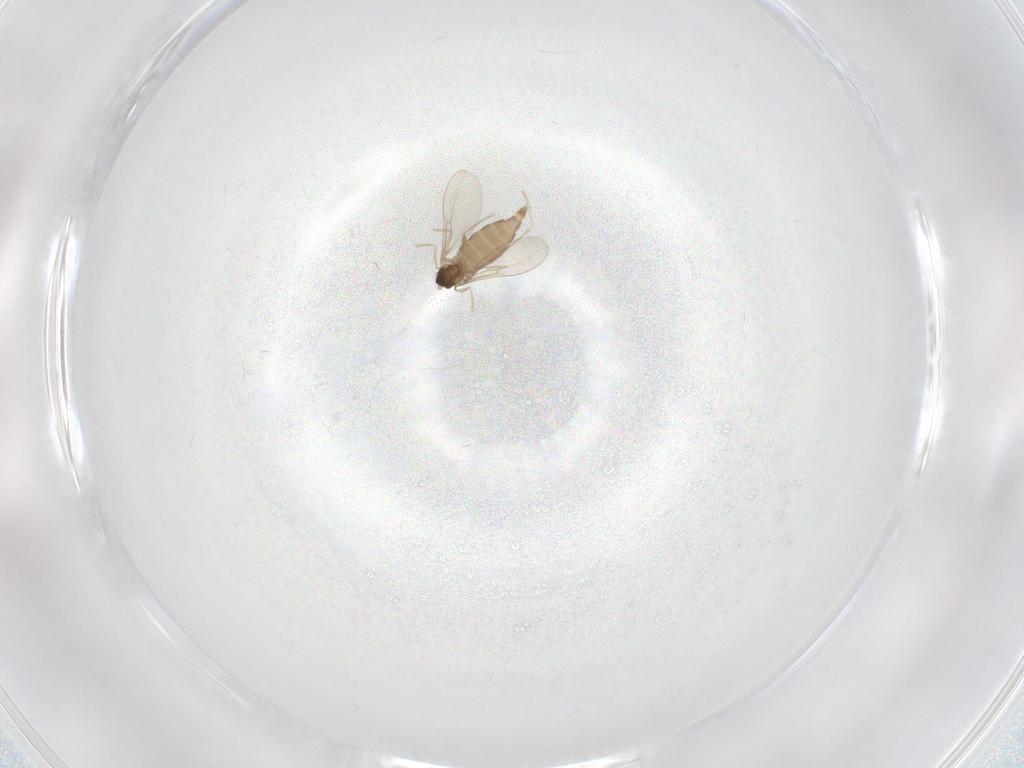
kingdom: Animalia
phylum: Arthropoda
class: Insecta
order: Diptera
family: Cecidomyiidae
